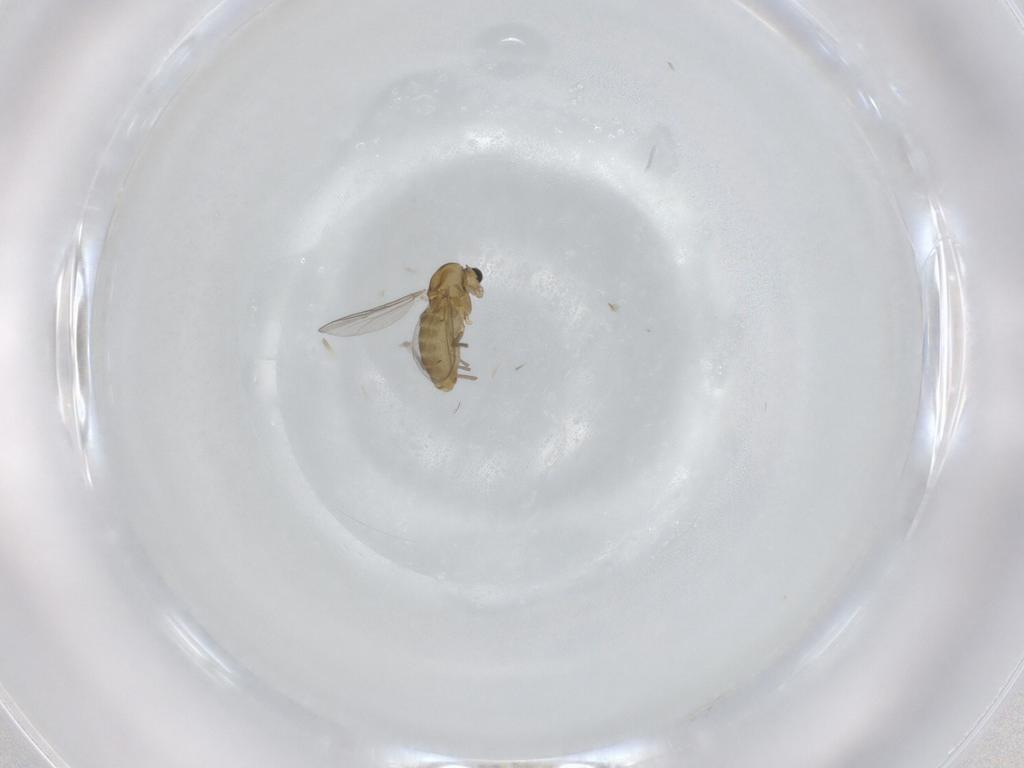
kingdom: Animalia
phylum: Arthropoda
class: Insecta
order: Diptera
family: Chironomidae
